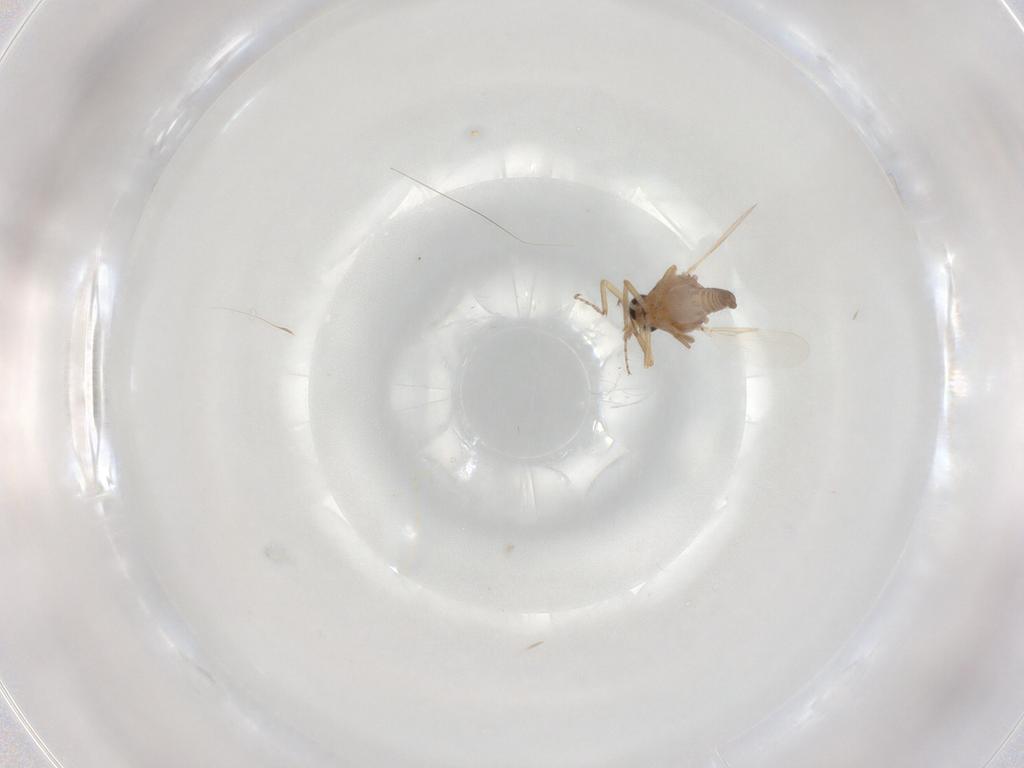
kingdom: Animalia
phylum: Arthropoda
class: Insecta
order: Diptera
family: Ceratopogonidae
